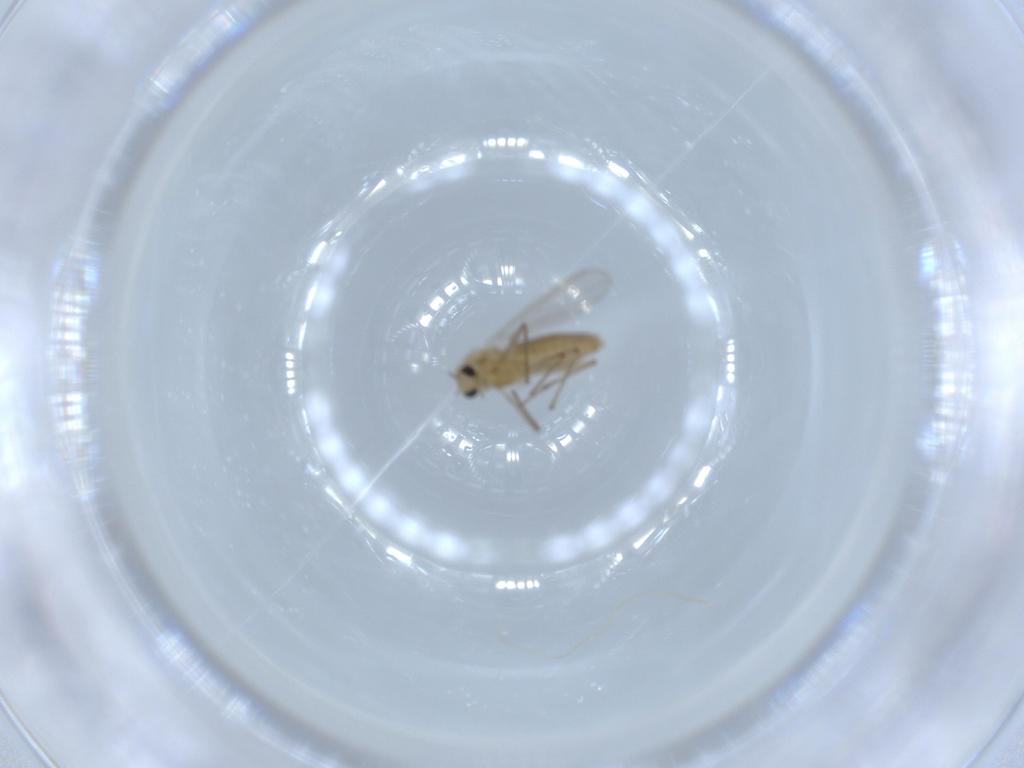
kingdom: Animalia
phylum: Arthropoda
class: Insecta
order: Diptera
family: Chironomidae
